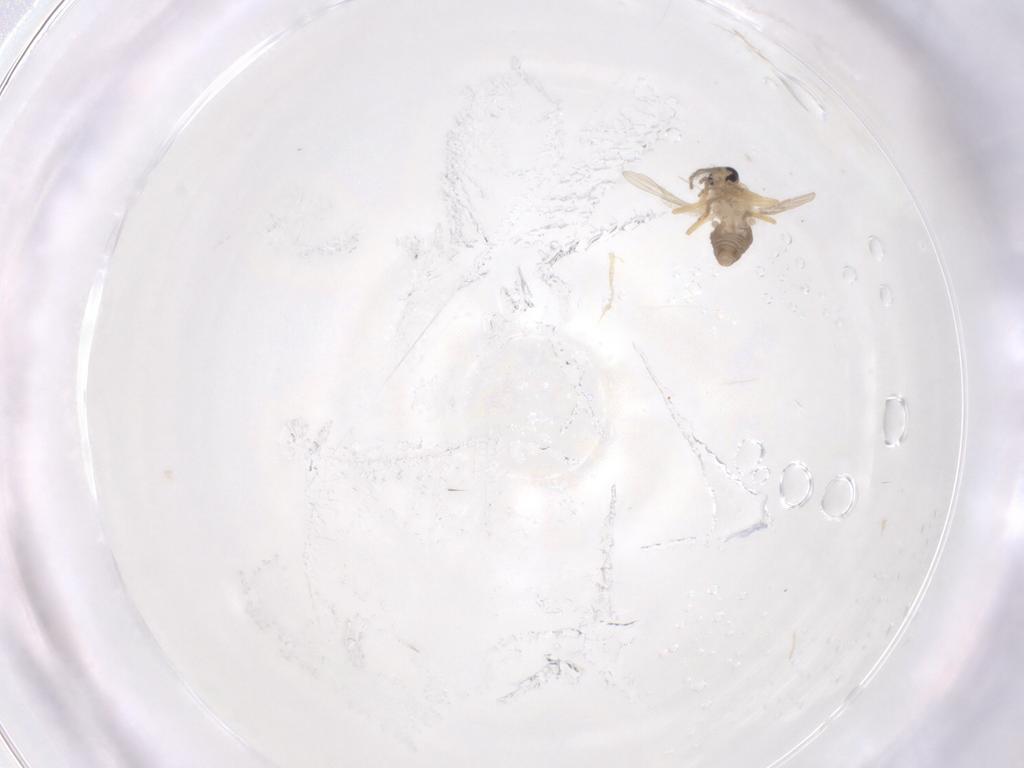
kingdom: Animalia
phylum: Arthropoda
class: Insecta
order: Diptera
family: Ceratopogonidae
